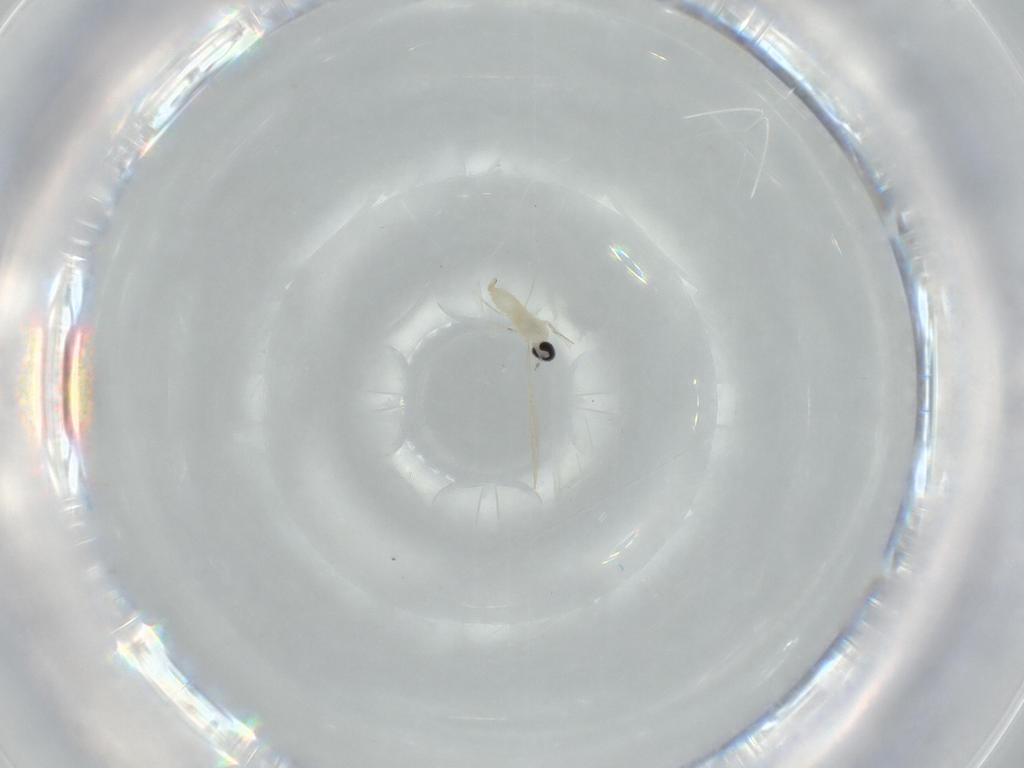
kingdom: Animalia
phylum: Arthropoda
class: Insecta
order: Diptera
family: Cecidomyiidae
